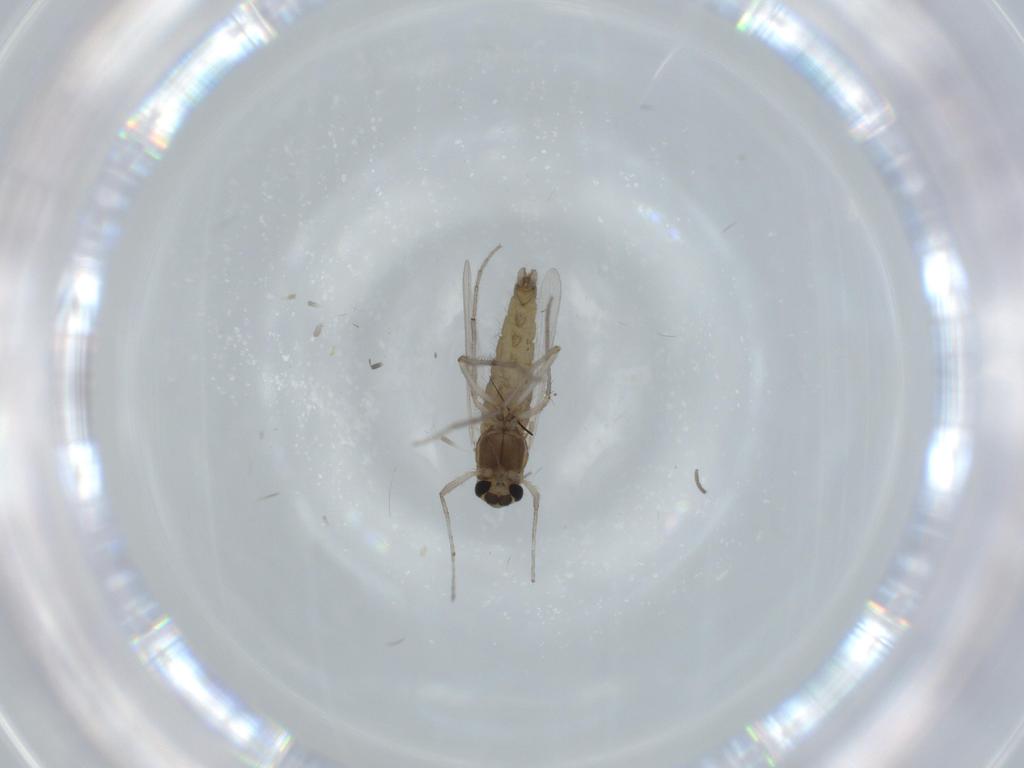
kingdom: Animalia
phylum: Arthropoda
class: Insecta
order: Diptera
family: Chironomidae
